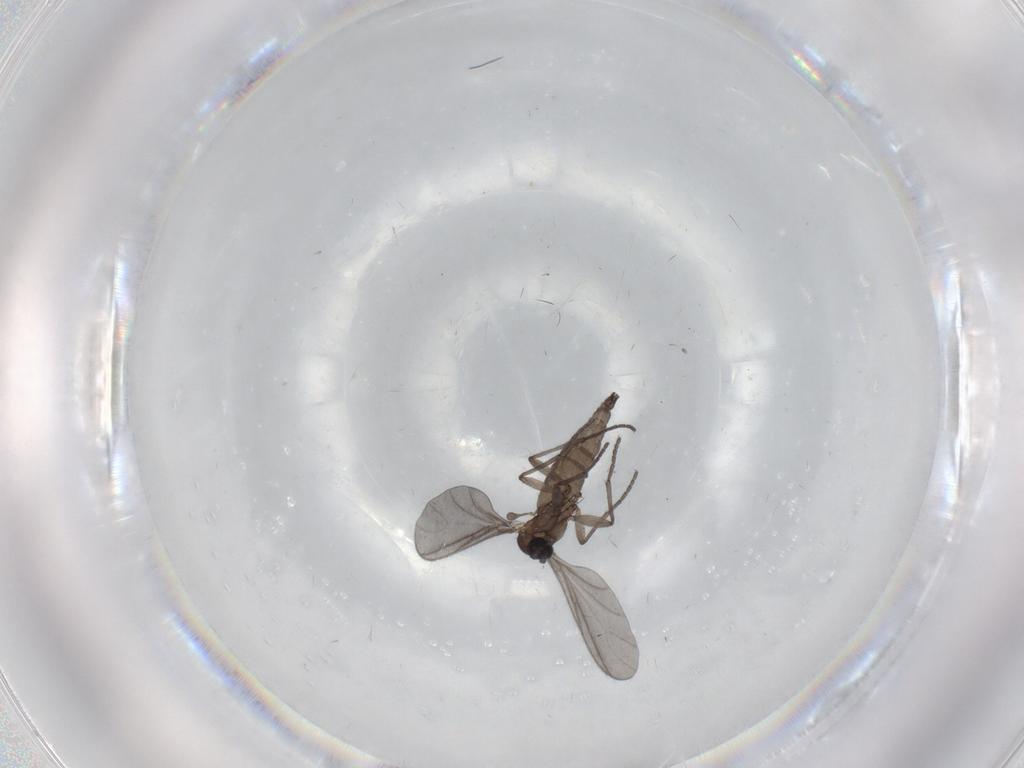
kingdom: Animalia
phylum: Arthropoda
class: Insecta
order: Diptera
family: Sciaridae
